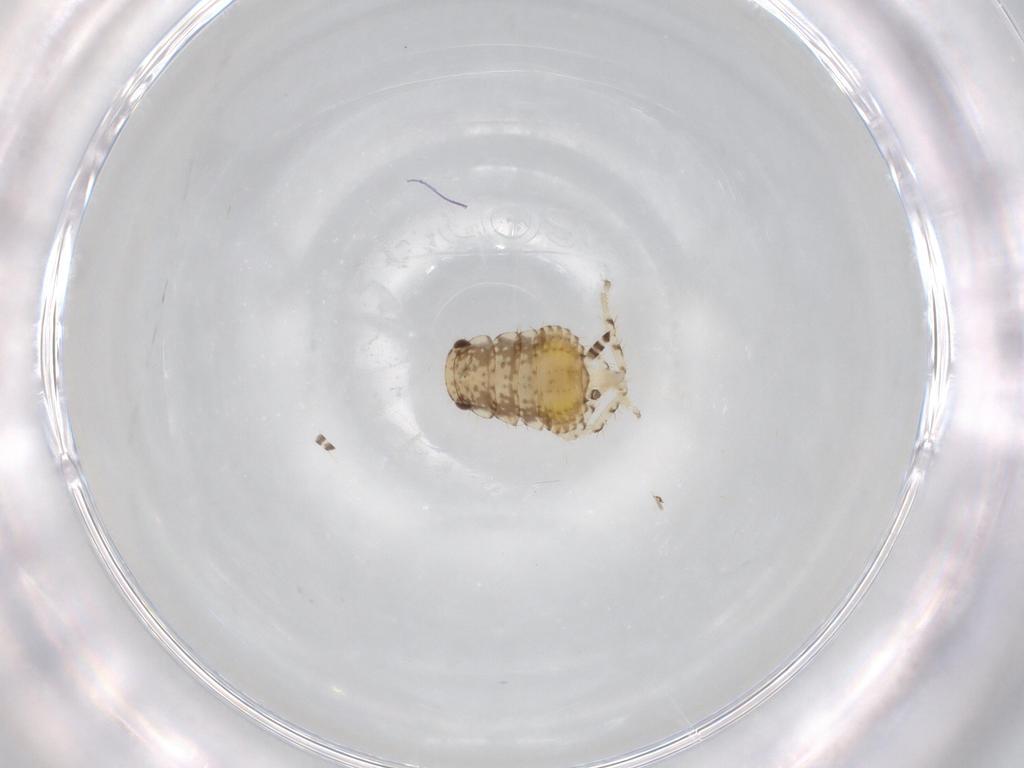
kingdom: Animalia
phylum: Arthropoda
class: Insecta
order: Blattodea
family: Ectobiidae
